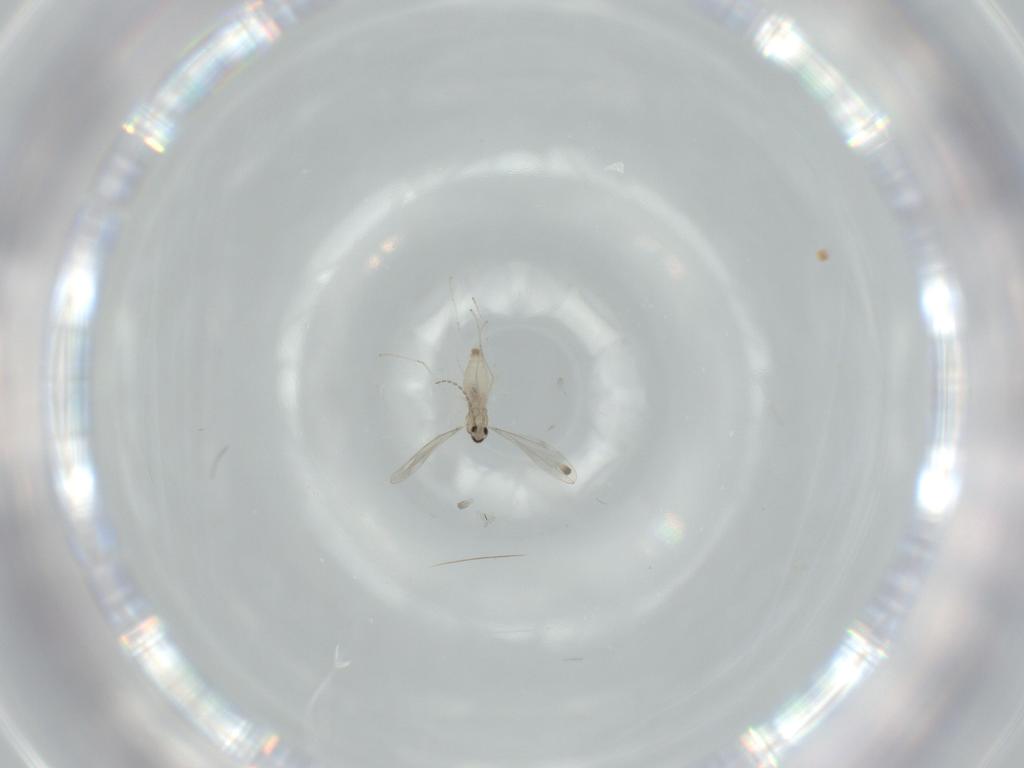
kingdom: Animalia
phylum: Arthropoda
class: Insecta
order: Diptera
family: Cecidomyiidae
